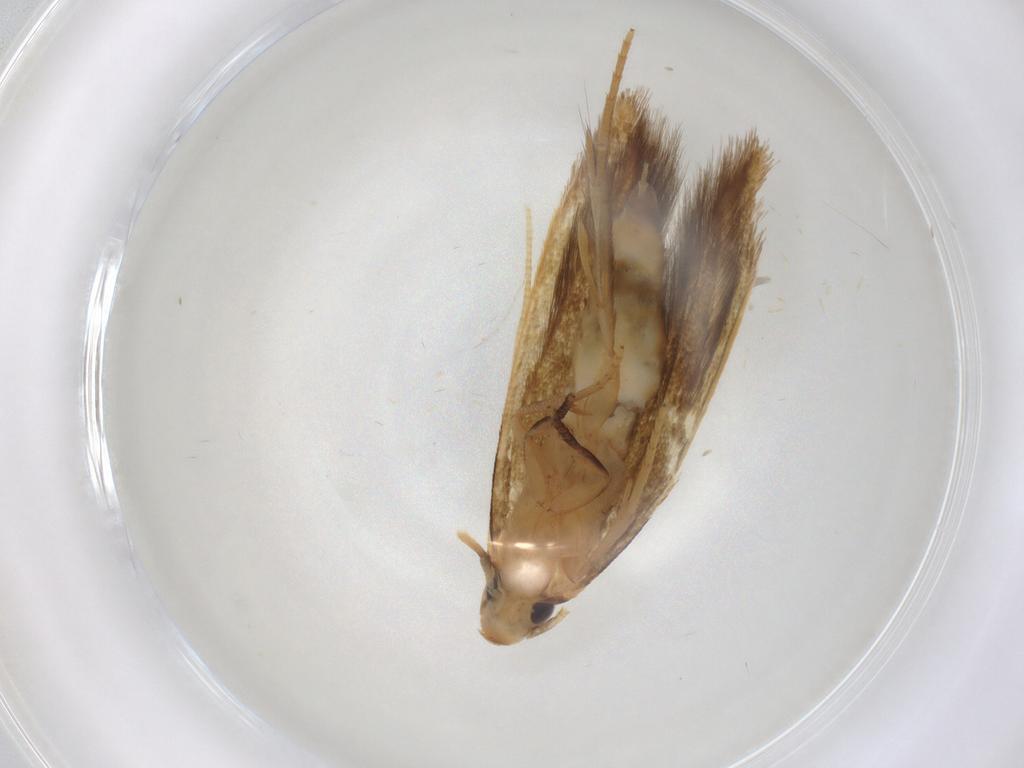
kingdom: Animalia
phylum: Arthropoda
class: Insecta
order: Lepidoptera
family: Tineidae
